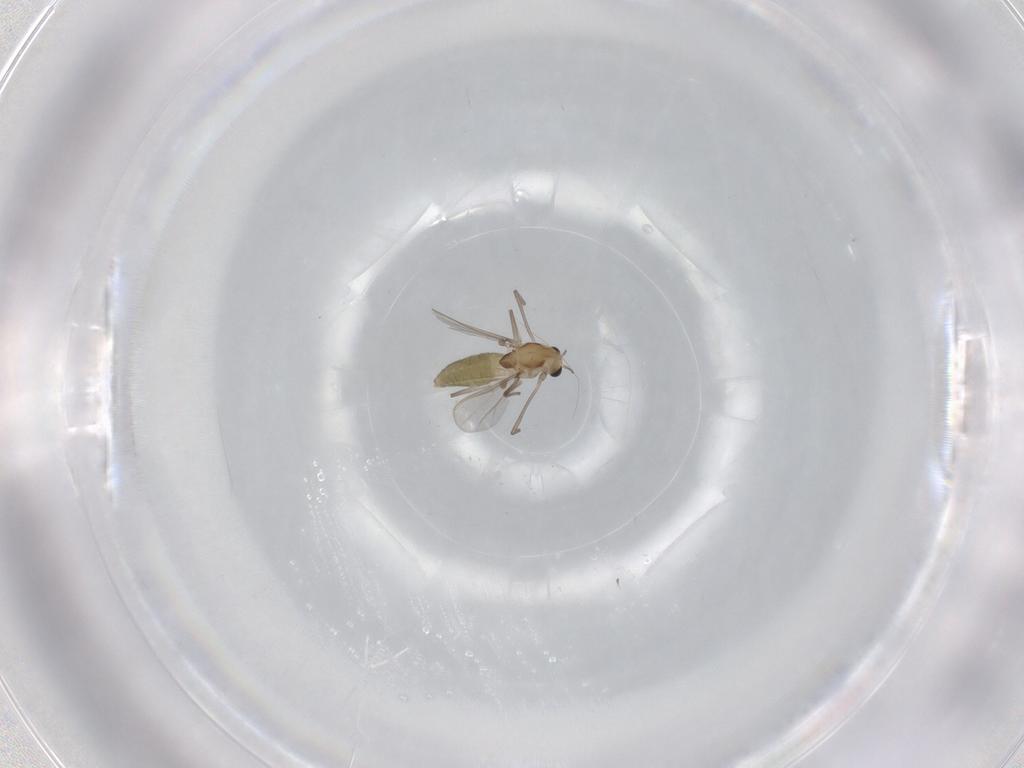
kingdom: Animalia
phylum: Arthropoda
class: Insecta
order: Diptera
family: Chironomidae
